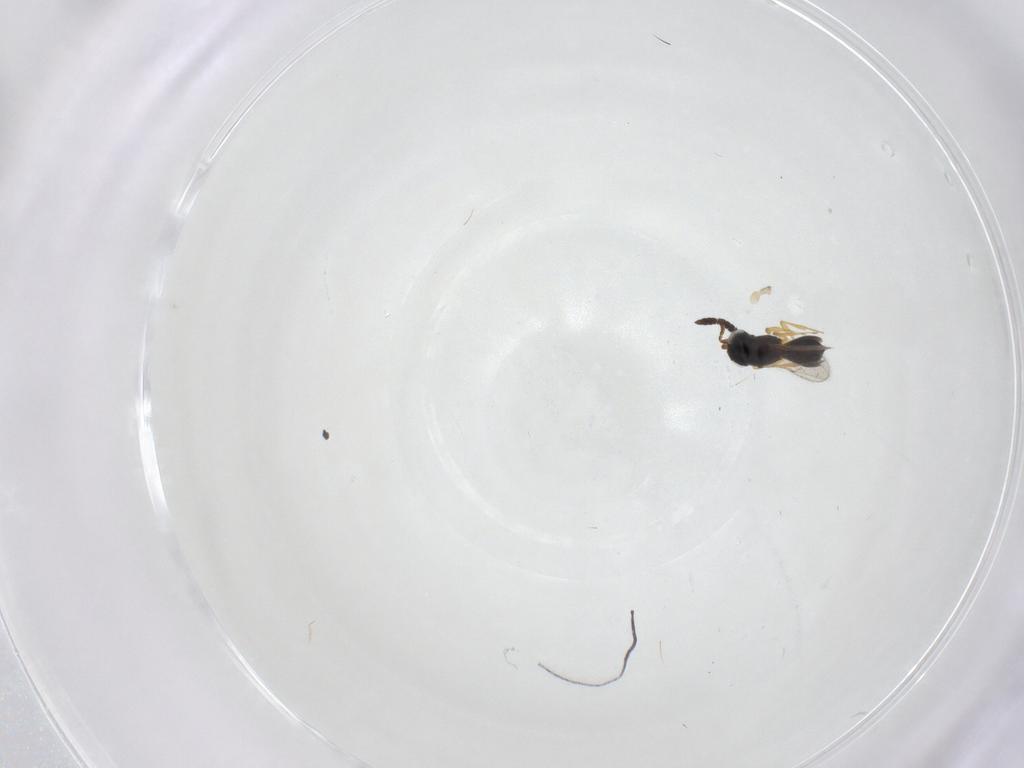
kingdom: Animalia
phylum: Arthropoda
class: Insecta
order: Hymenoptera
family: Scelionidae
